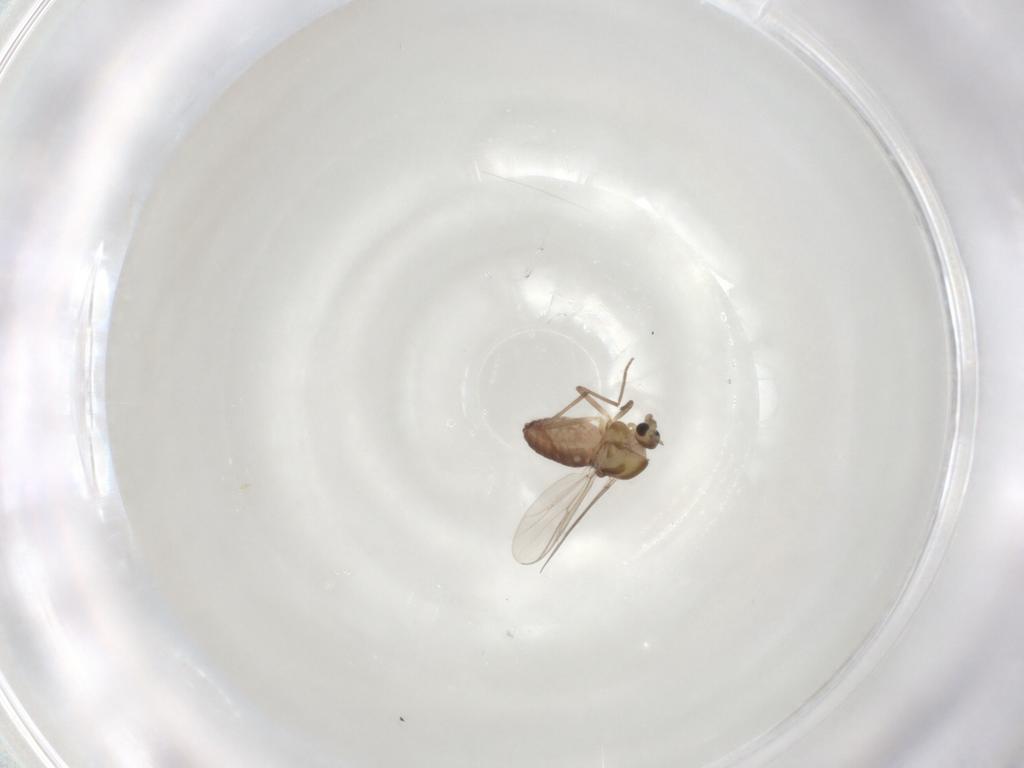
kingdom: Animalia
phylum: Arthropoda
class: Insecta
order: Diptera
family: Chironomidae
